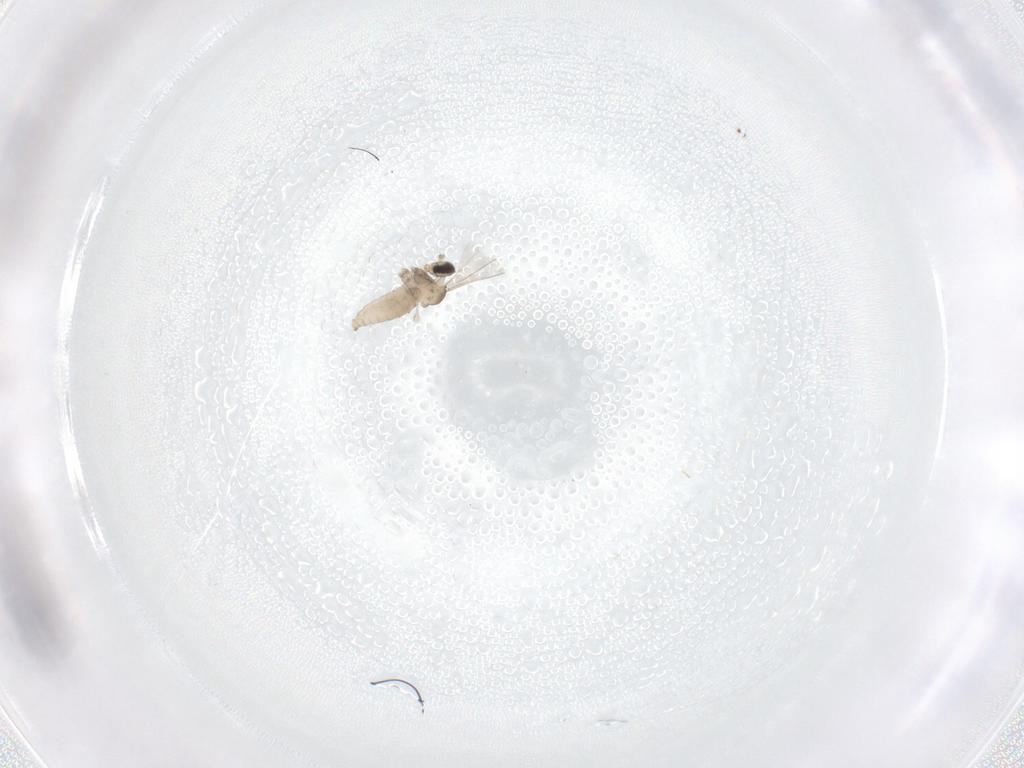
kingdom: Animalia
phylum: Arthropoda
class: Insecta
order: Diptera
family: Cecidomyiidae
